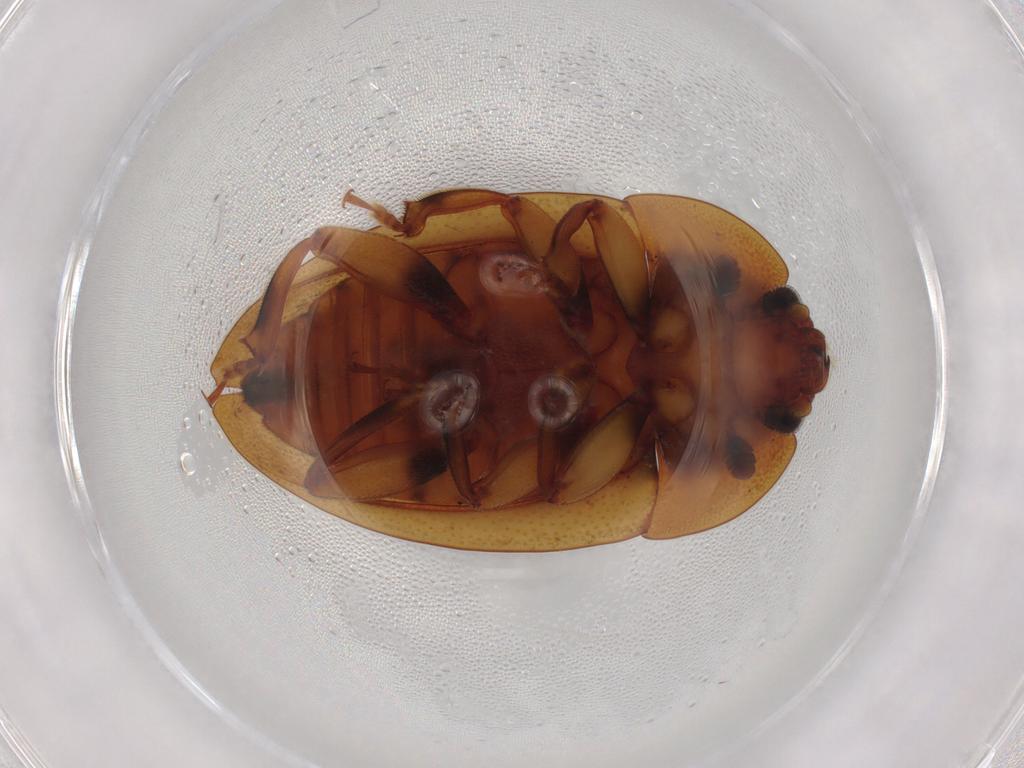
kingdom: Animalia
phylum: Arthropoda
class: Insecta
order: Coleoptera
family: Nitidulidae
